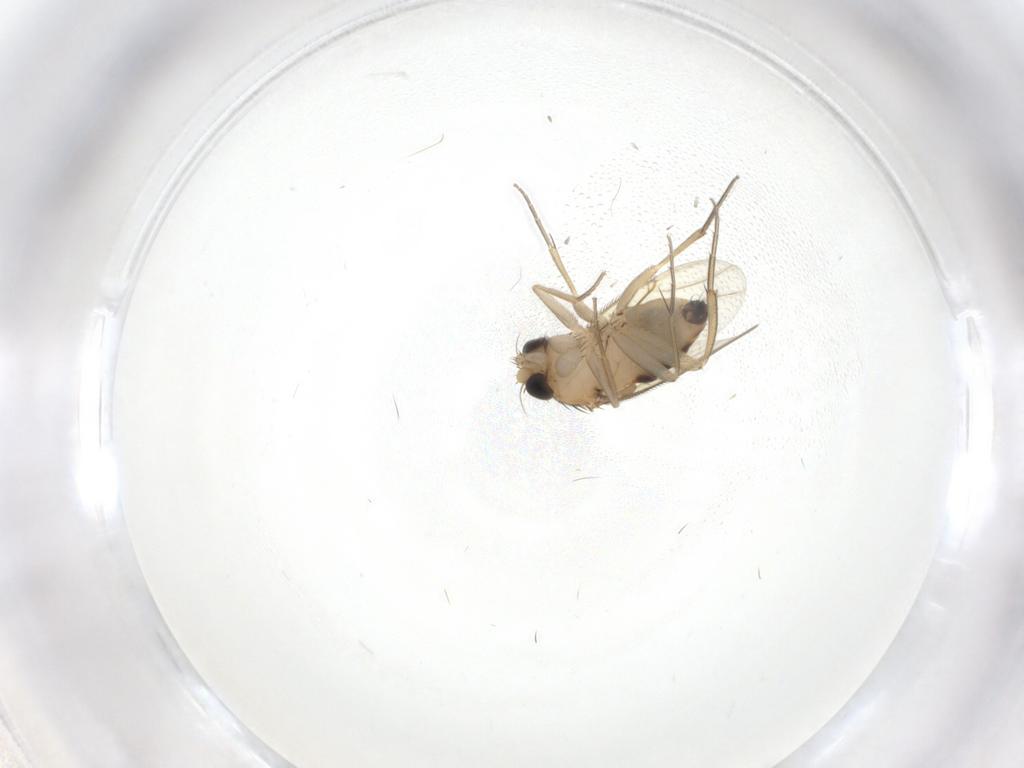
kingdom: Animalia
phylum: Arthropoda
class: Insecta
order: Diptera
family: Phoridae
